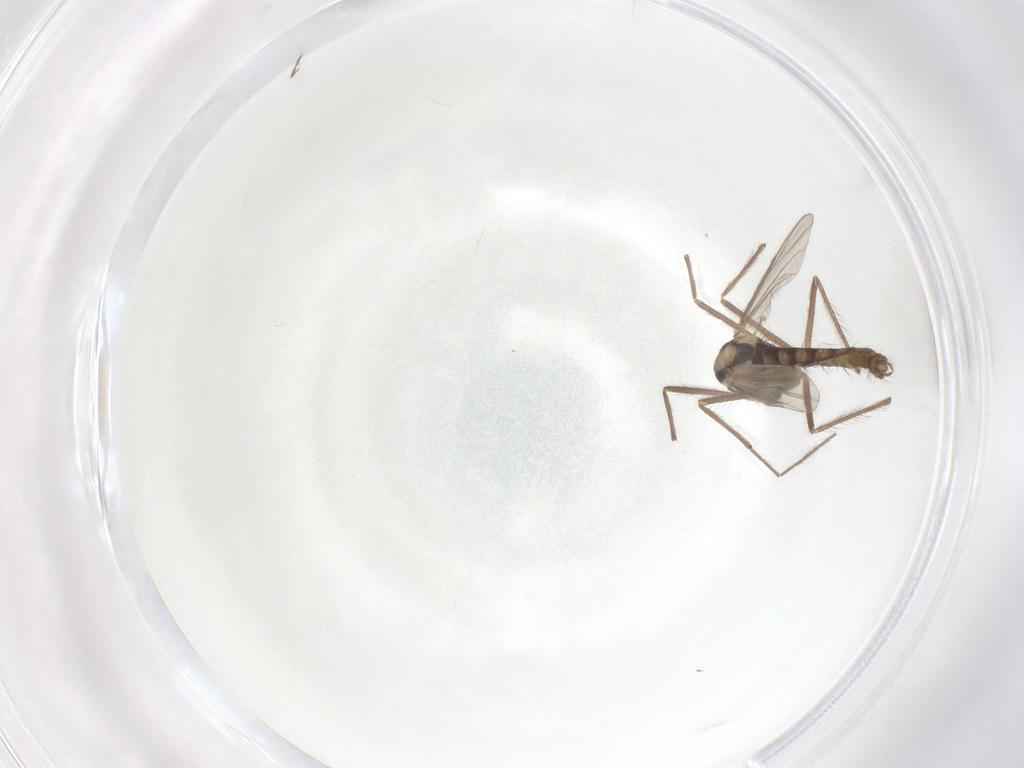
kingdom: Animalia
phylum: Arthropoda
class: Insecta
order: Diptera
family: Chironomidae
